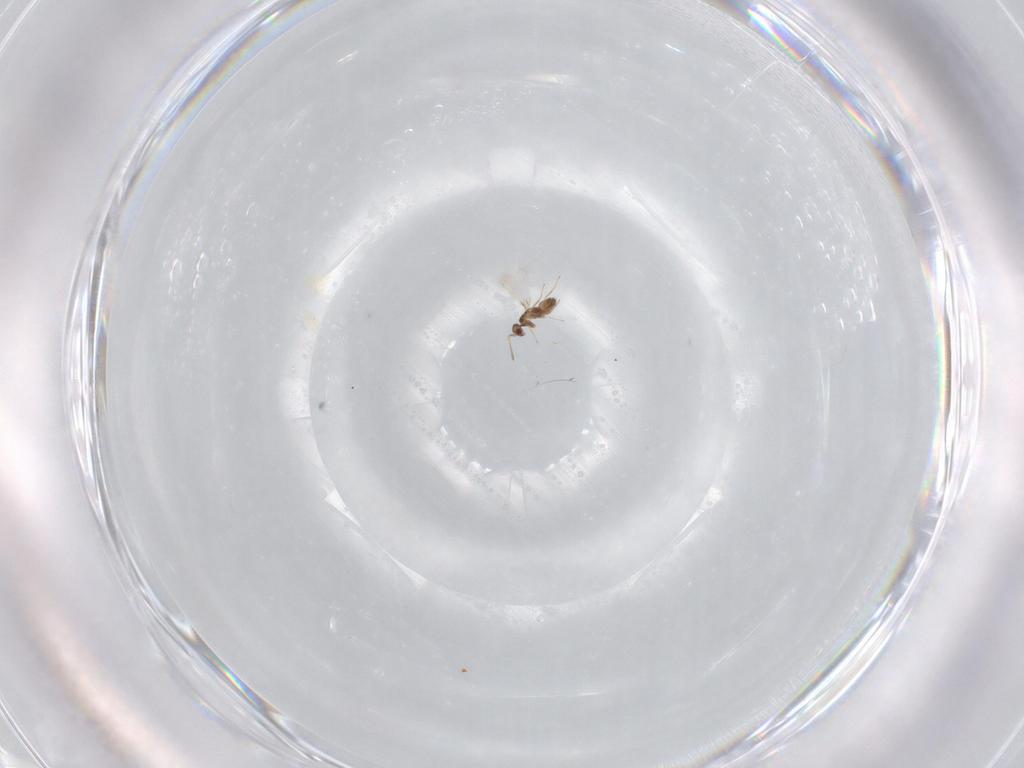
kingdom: Animalia
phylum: Arthropoda
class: Insecta
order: Hymenoptera
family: Mymaridae
